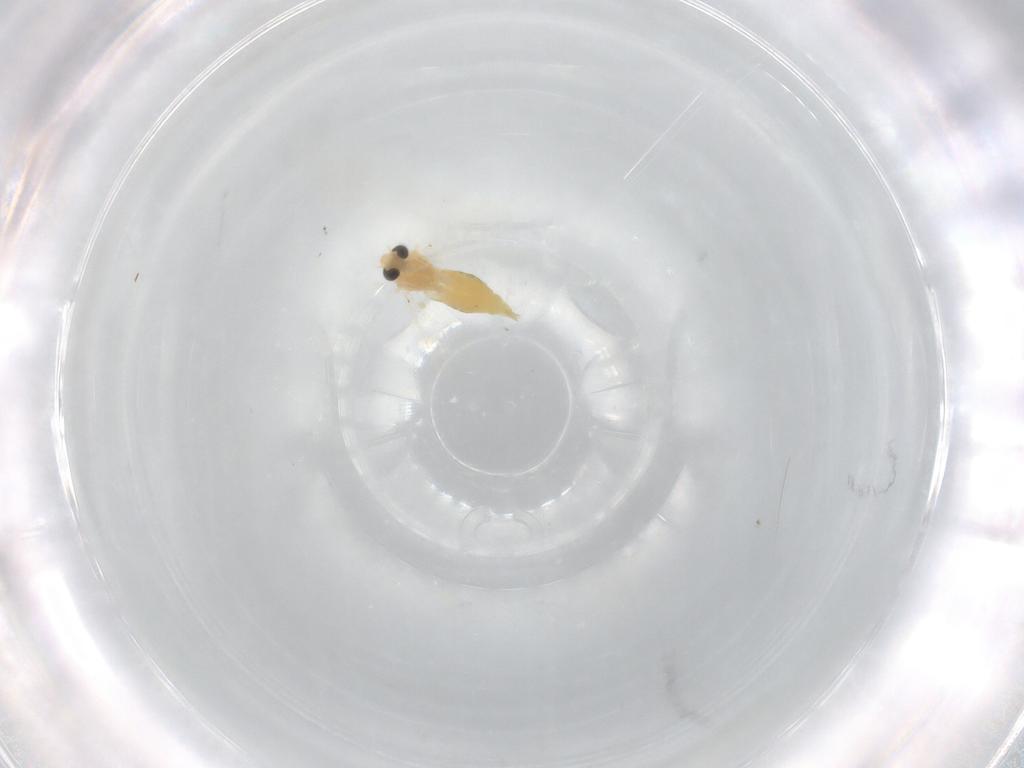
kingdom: Animalia
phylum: Arthropoda
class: Insecta
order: Diptera
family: Chironomidae
